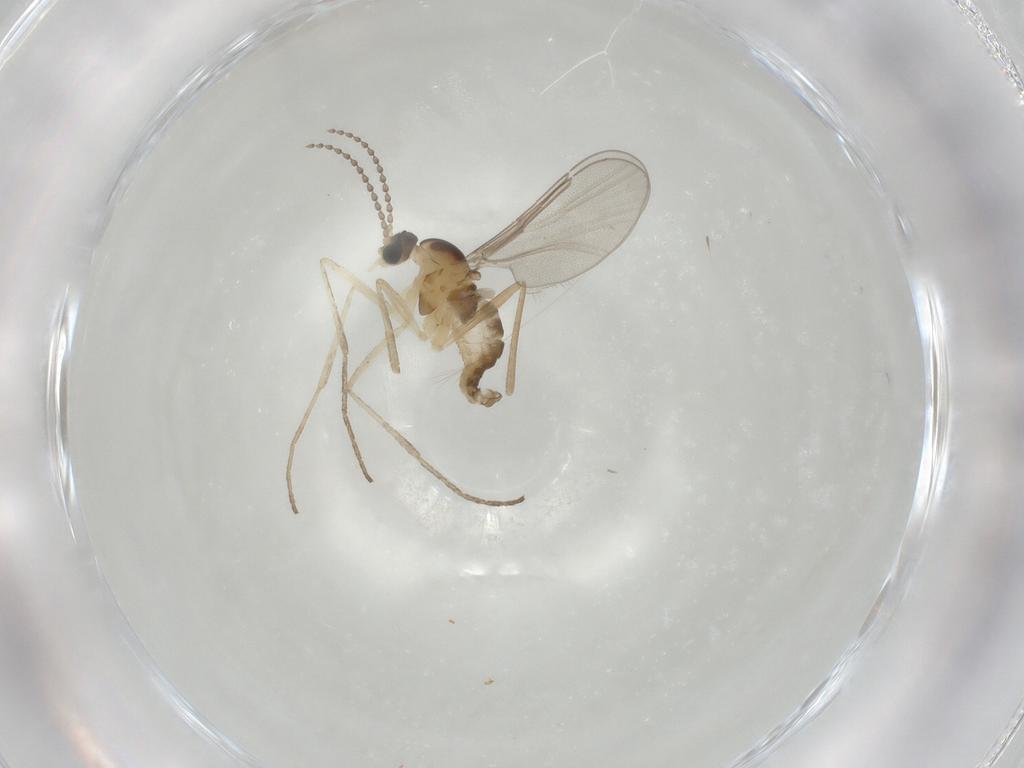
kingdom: Animalia
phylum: Arthropoda
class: Insecta
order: Diptera
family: Cecidomyiidae
